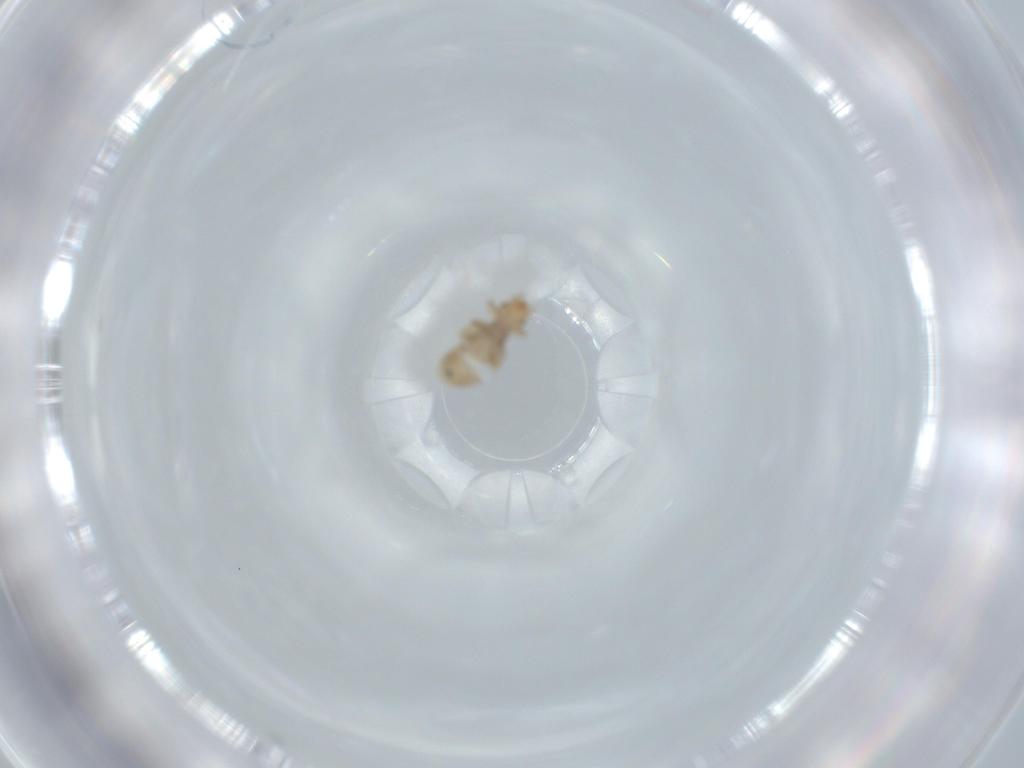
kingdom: Animalia
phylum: Arthropoda
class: Insecta
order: Psocodea
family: Liposcelididae
